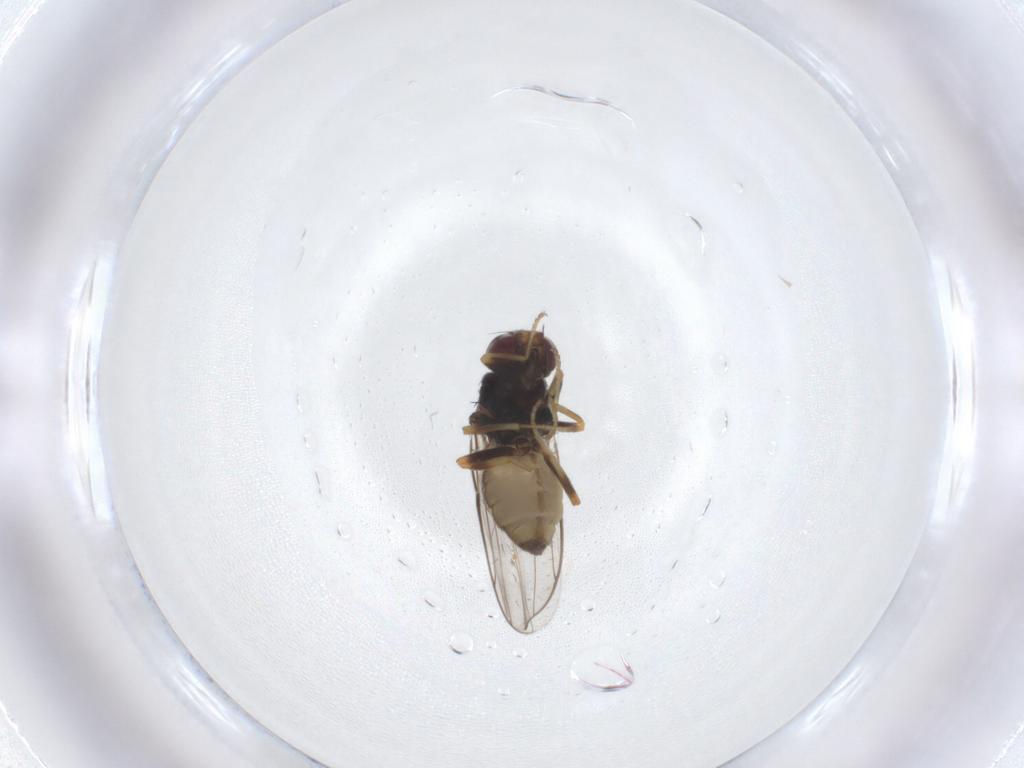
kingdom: Animalia
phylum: Arthropoda
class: Insecta
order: Diptera
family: Chloropidae
